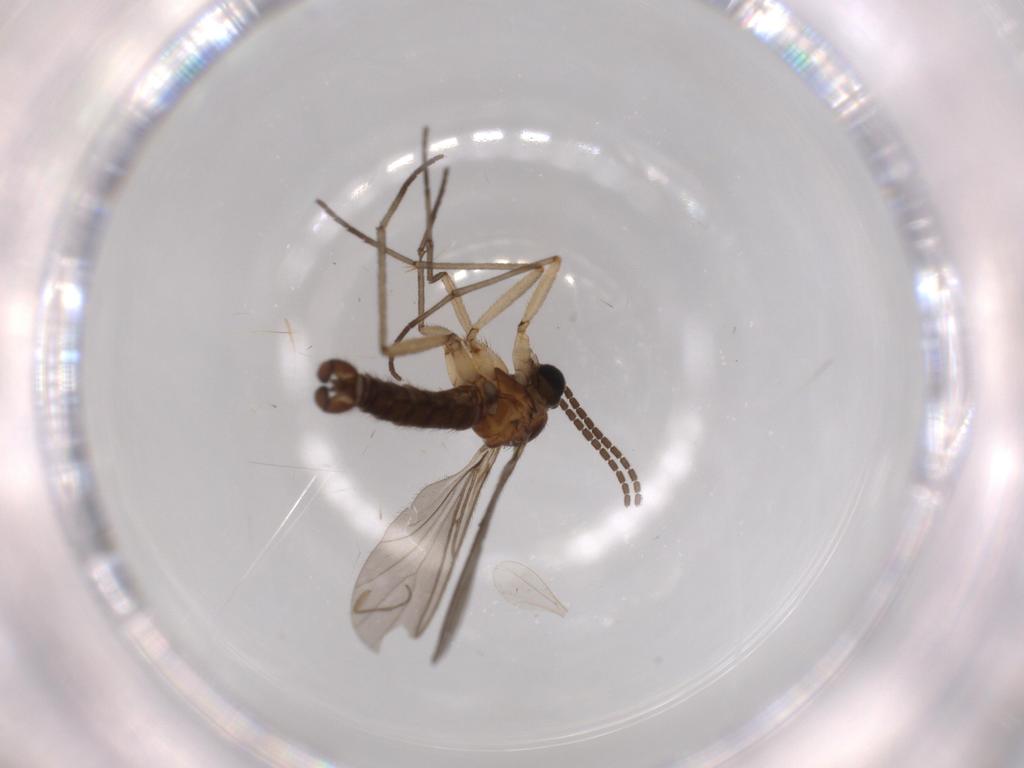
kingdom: Animalia
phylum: Arthropoda
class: Insecta
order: Diptera
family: Sciaridae
